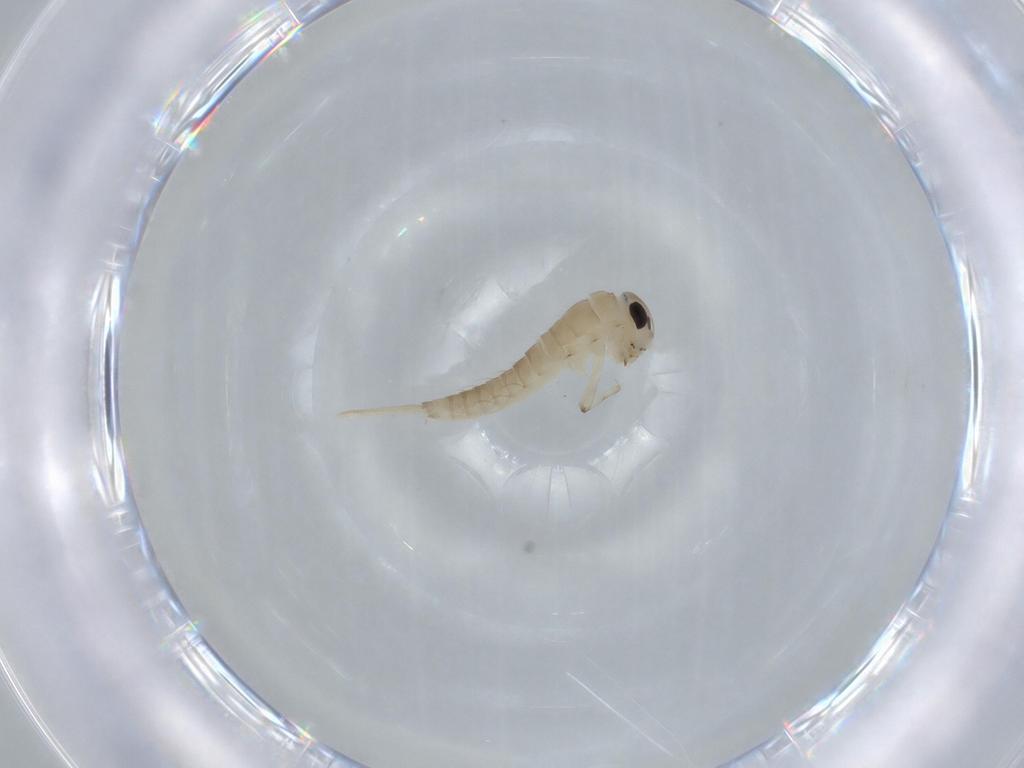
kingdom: Animalia
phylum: Arthropoda
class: Insecta
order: Ephemeroptera
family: Baetidae
